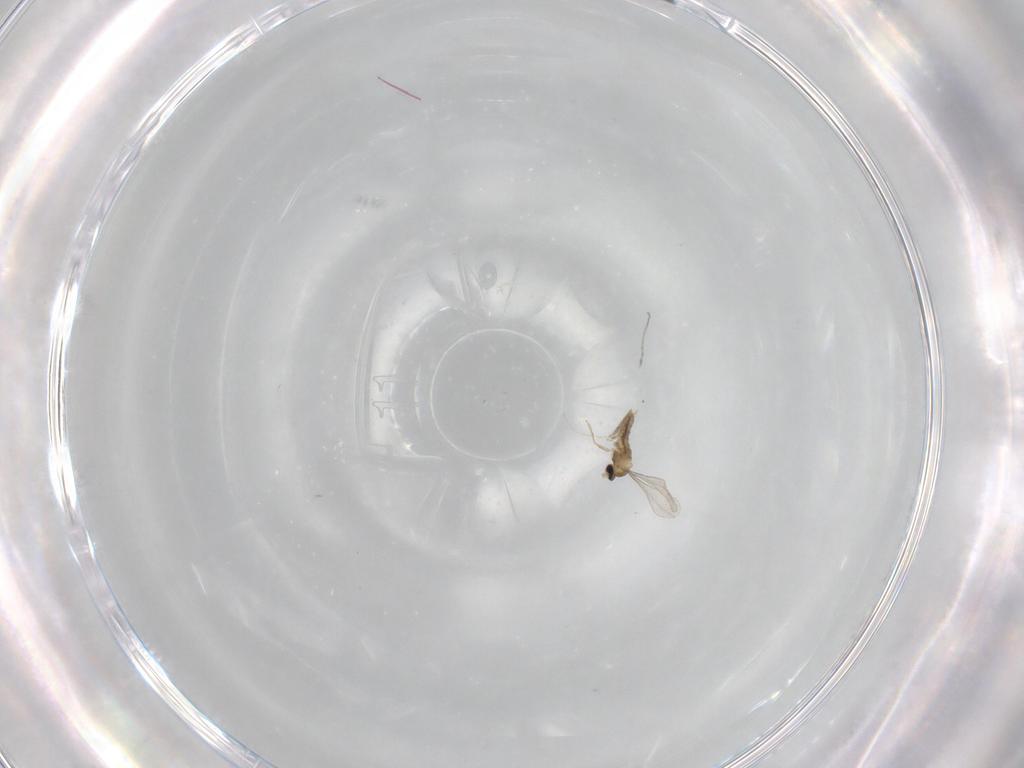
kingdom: Animalia
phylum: Arthropoda
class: Insecta
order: Diptera
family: Cecidomyiidae
